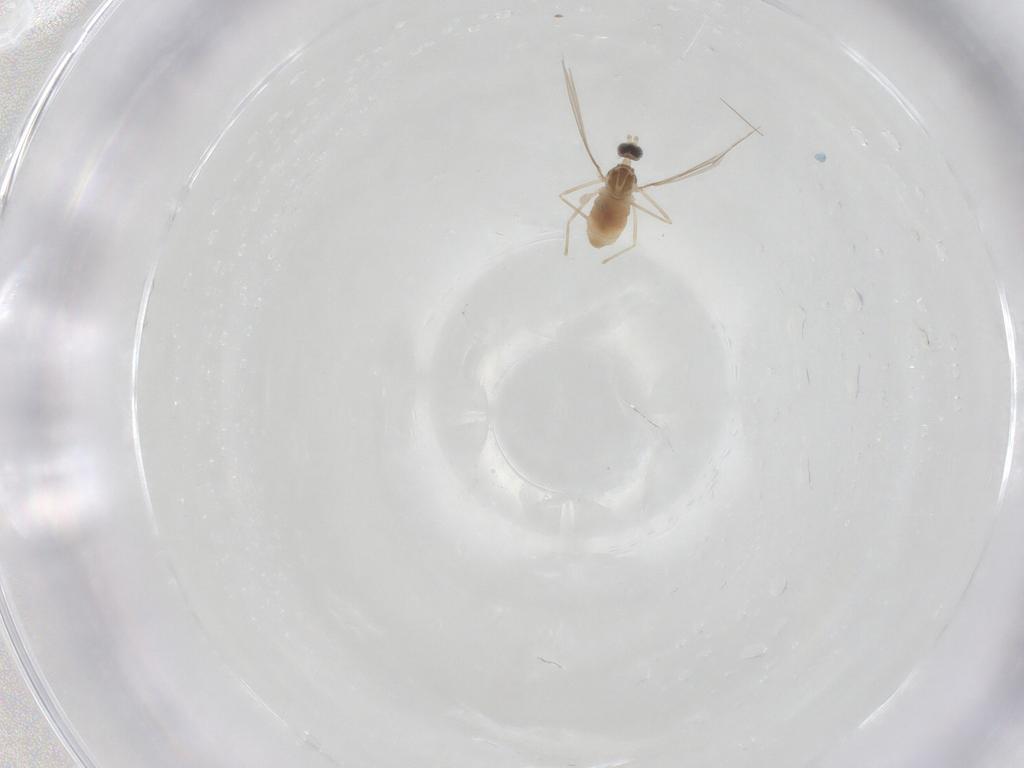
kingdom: Animalia
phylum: Arthropoda
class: Insecta
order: Diptera
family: Cecidomyiidae
